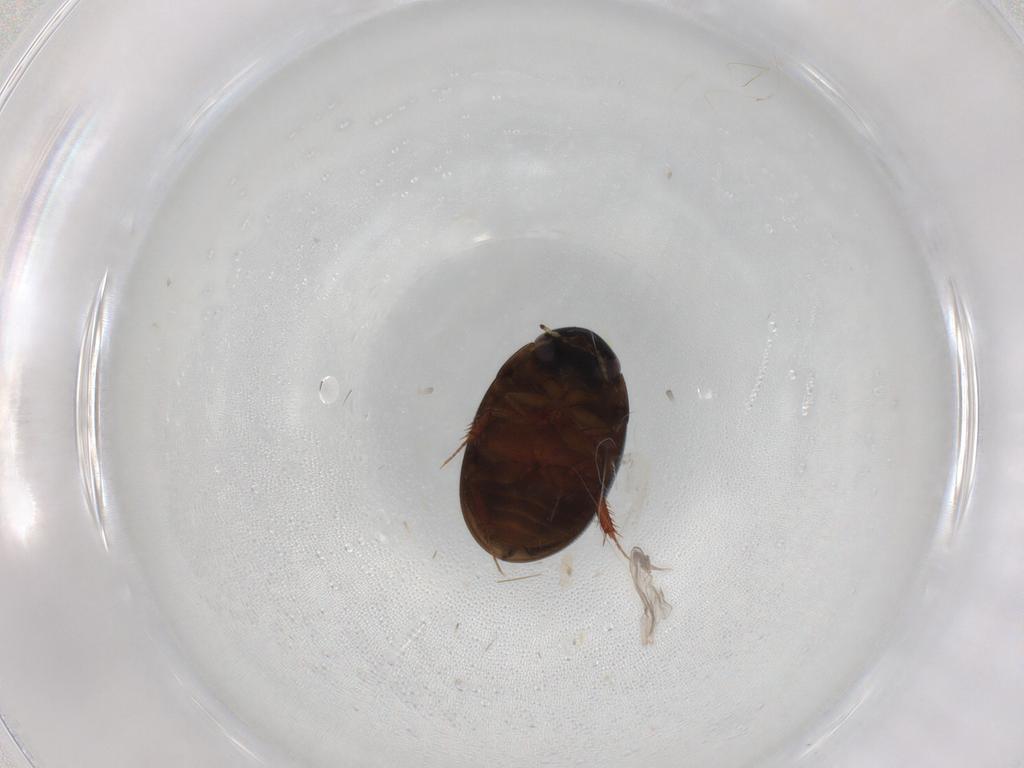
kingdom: Animalia
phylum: Arthropoda
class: Insecta
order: Coleoptera
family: Hydrophilidae
